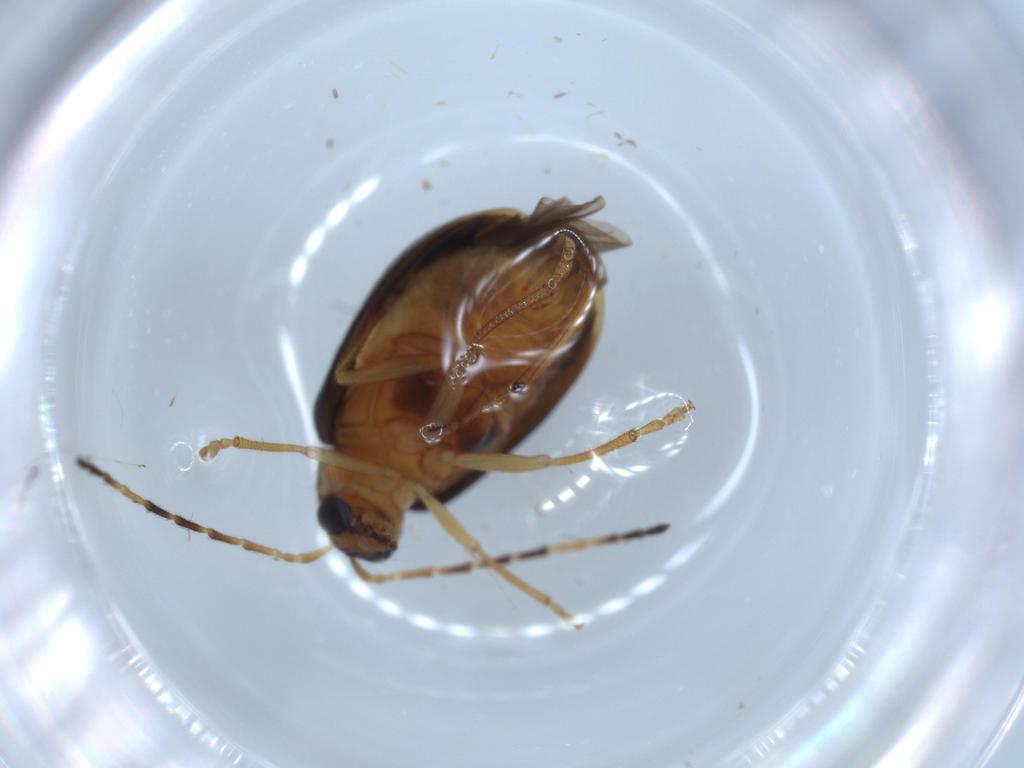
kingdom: Animalia
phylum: Arthropoda
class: Insecta
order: Coleoptera
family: Chrysomelidae
